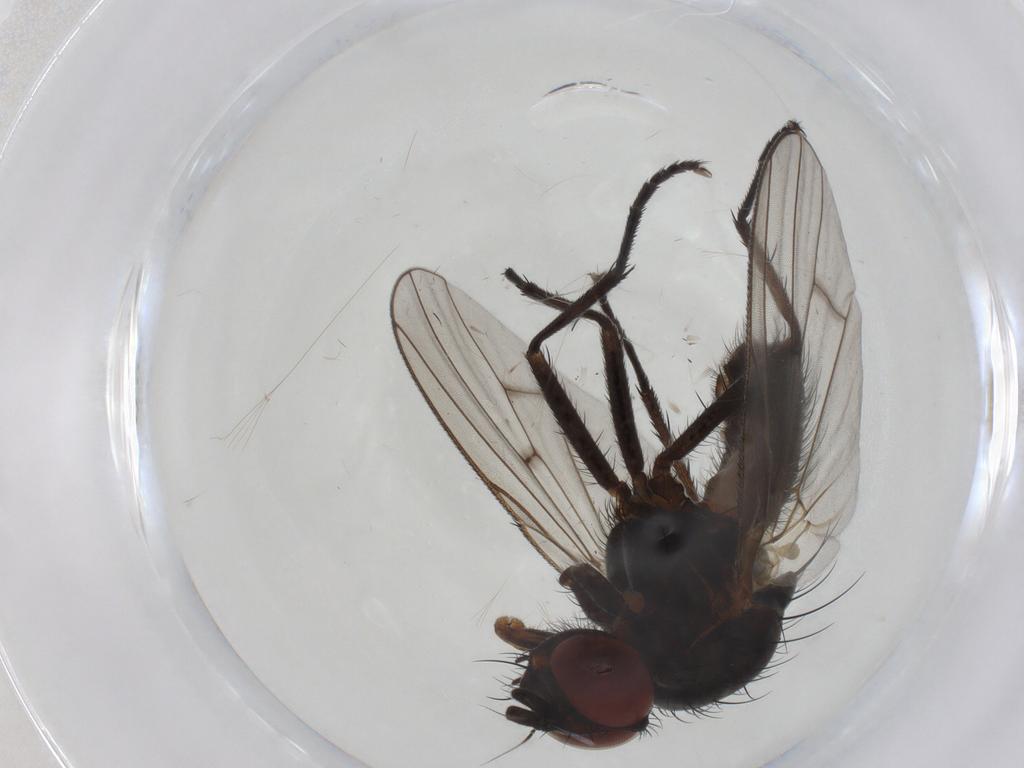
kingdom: Animalia
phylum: Arthropoda
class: Insecta
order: Diptera
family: Anthomyiidae
